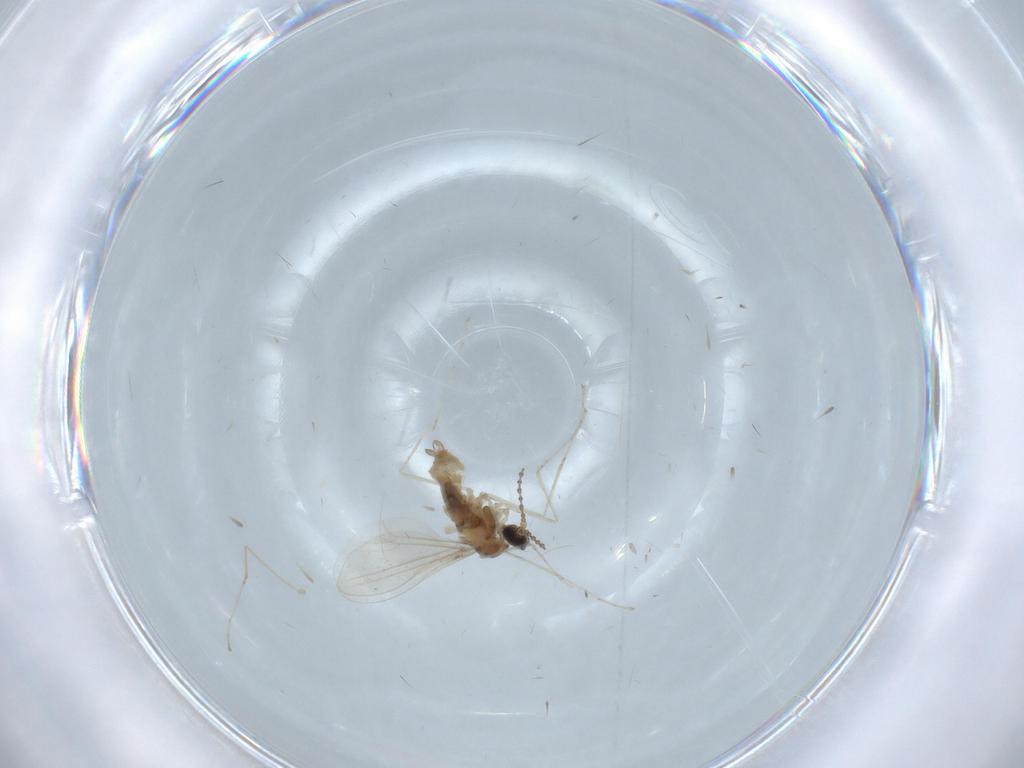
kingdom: Animalia
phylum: Arthropoda
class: Insecta
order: Diptera
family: Cecidomyiidae
